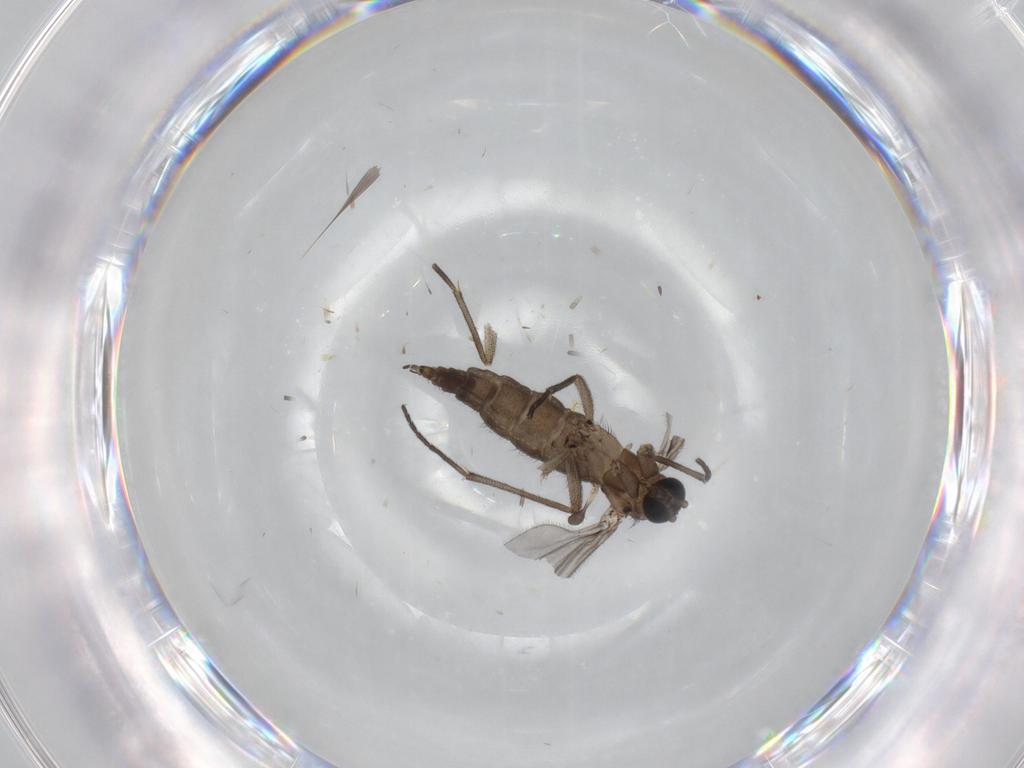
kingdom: Animalia
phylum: Arthropoda
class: Insecta
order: Diptera
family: Sciaridae
